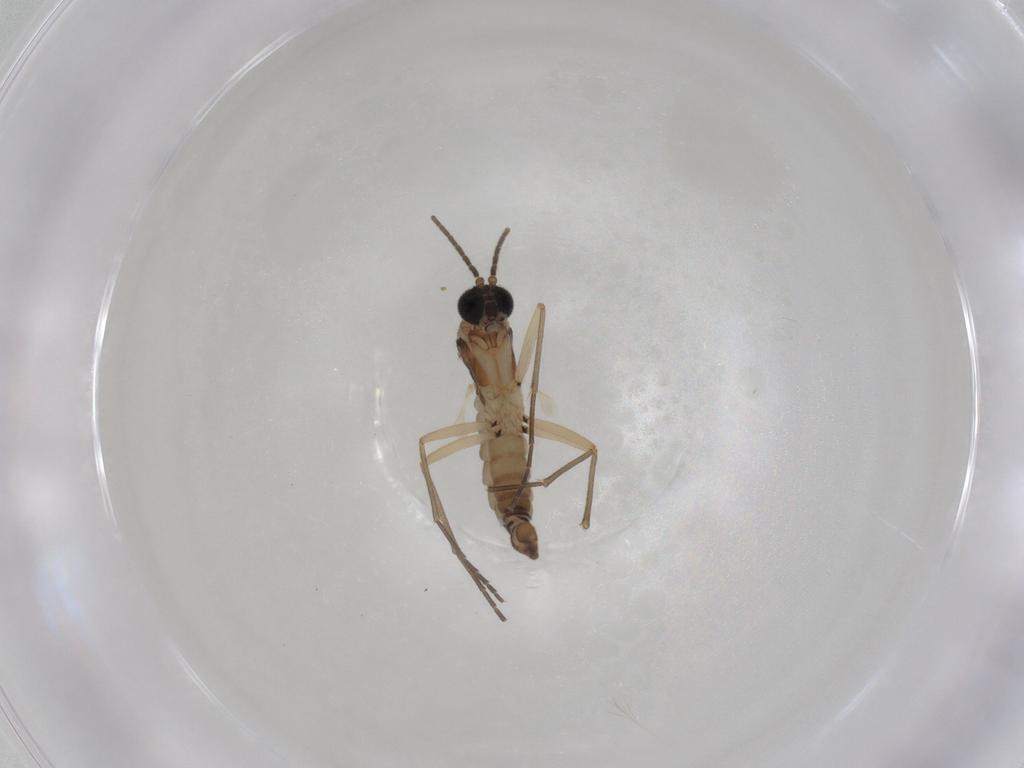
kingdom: Animalia
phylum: Arthropoda
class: Insecta
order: Diptera
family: Sciaridae
